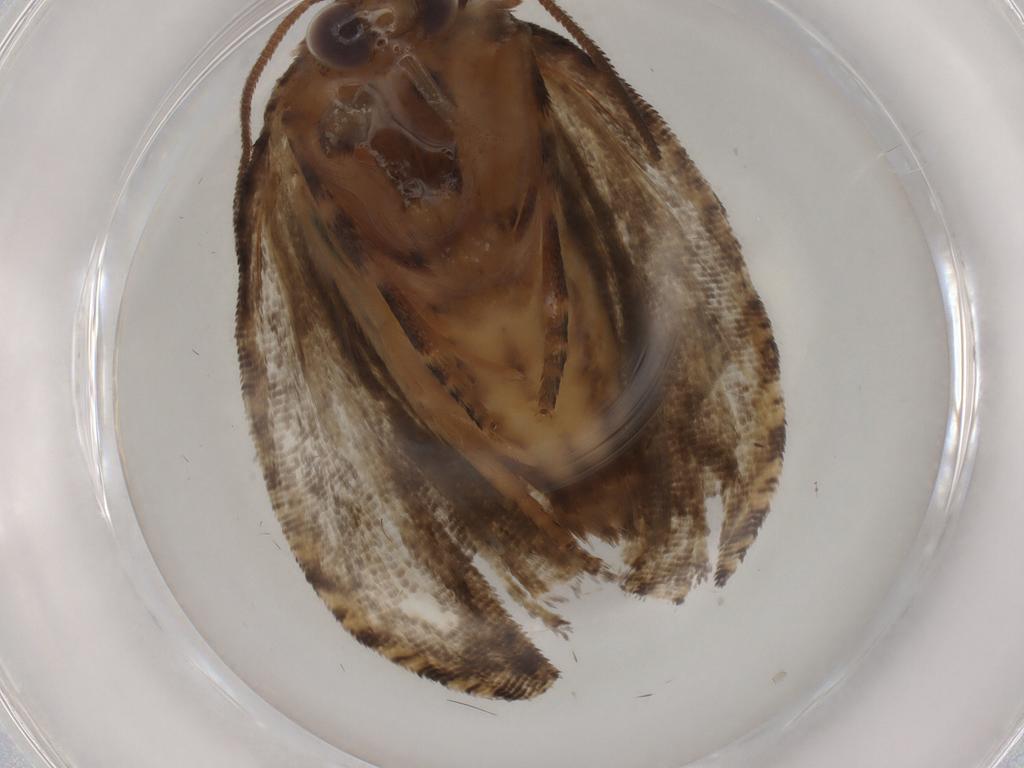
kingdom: Animalia
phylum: Arthropoda
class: Insecta
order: Lepidoptera
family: Tortricidae
